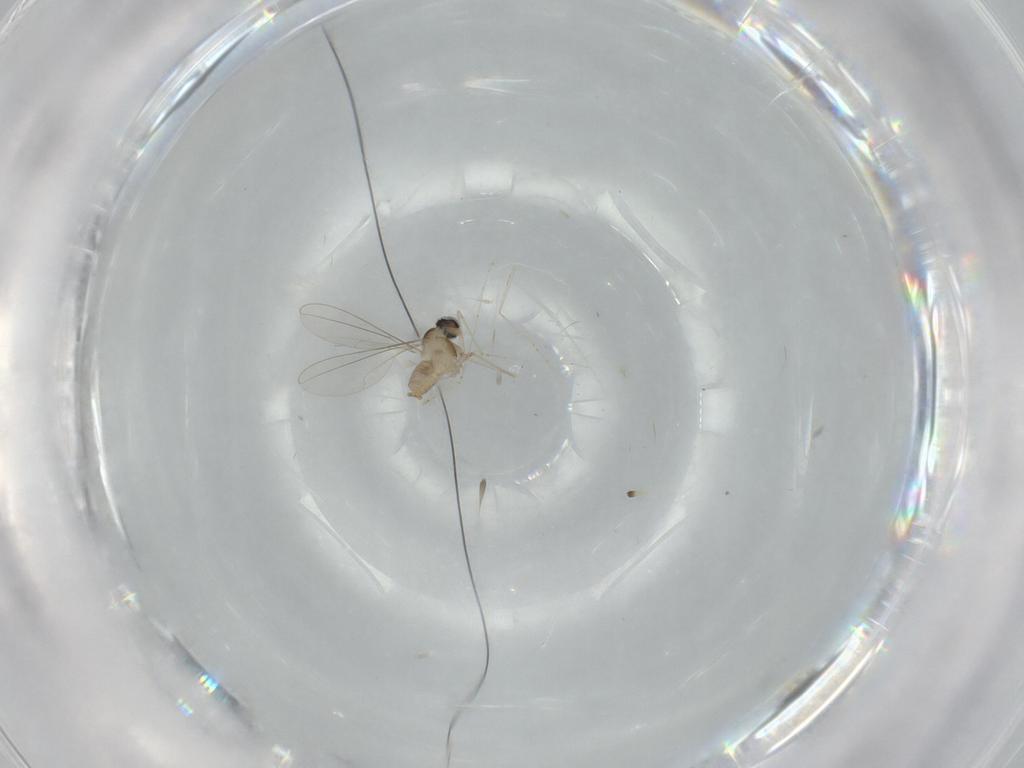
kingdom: Animalia
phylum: Arthropoda
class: Insecta
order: Diptera
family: Cecidomyiidae
